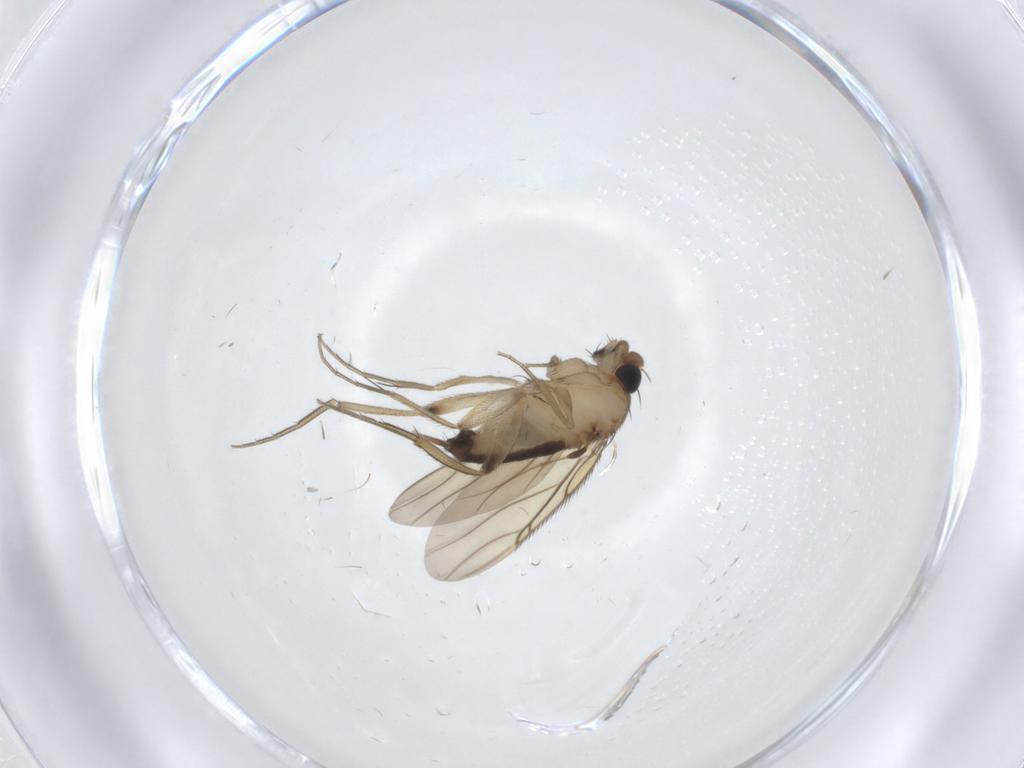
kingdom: Animalia
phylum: Arthropoda
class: Insecta
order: Diptera
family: Phoridae
